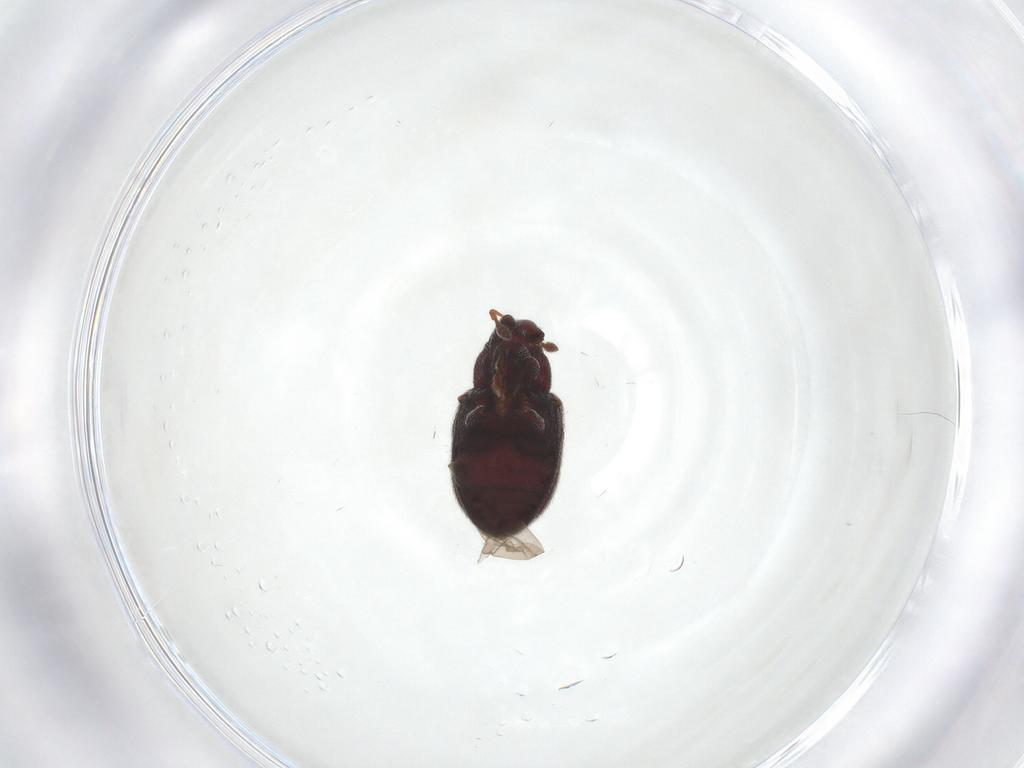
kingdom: Animalia
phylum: Arthropoda
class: Insecta
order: Coleoptera
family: Curculionidae
